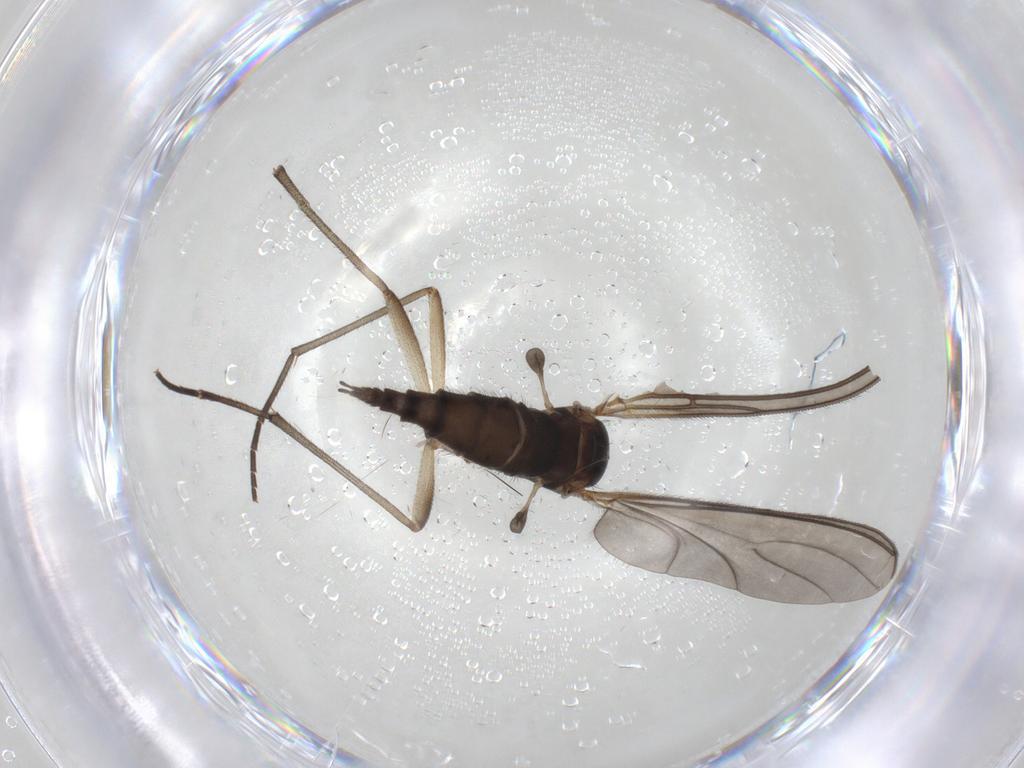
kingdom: Animalia
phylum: Arthropoda
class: Insecta
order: Diptera
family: Sciaridae
